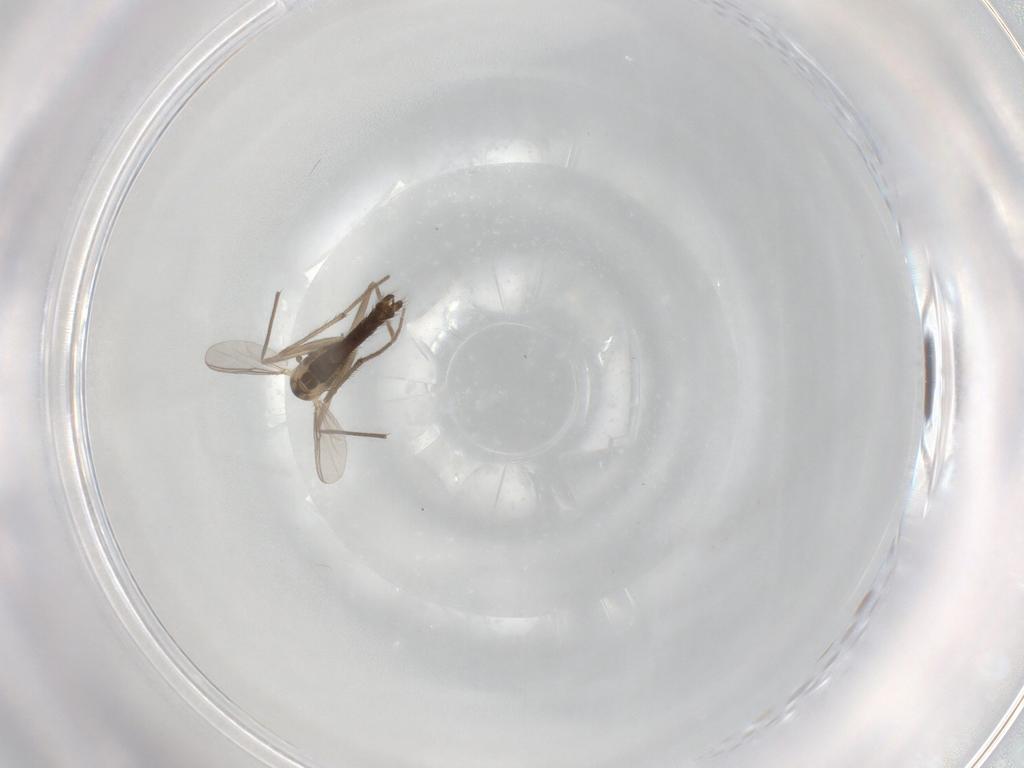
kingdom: Animalia
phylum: Arthropoda
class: Insecta
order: Diptera
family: Chironomidae
